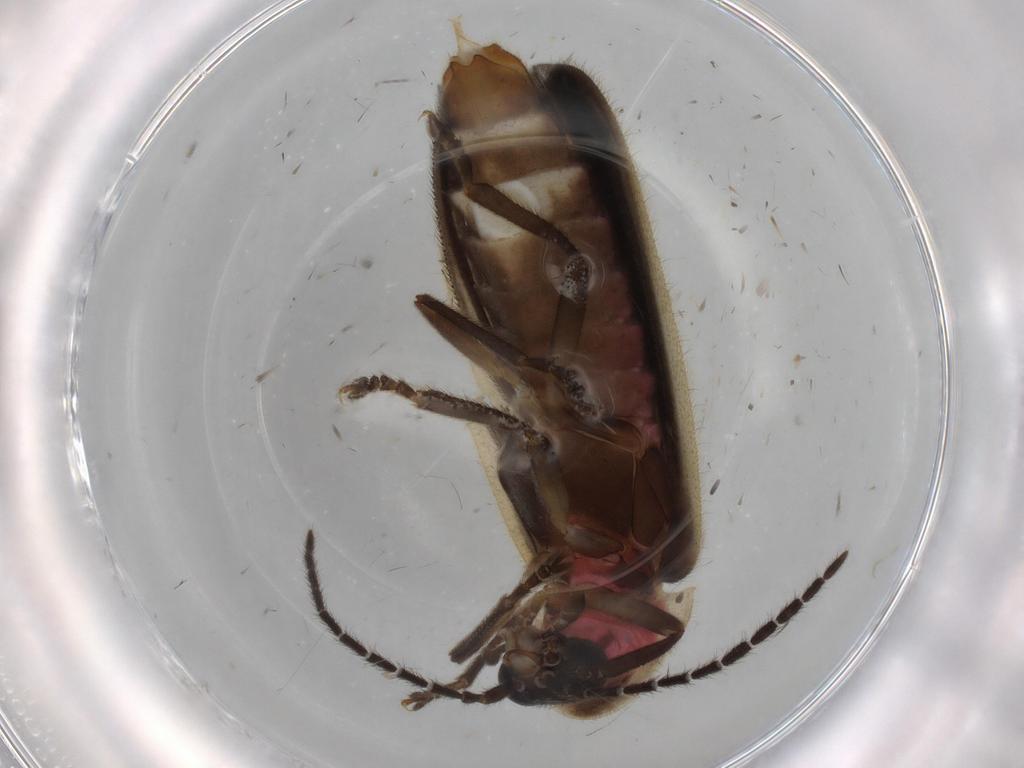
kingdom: Animalia
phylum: Arthropoda
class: Insecta
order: Coleoptera
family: Lampyridae
